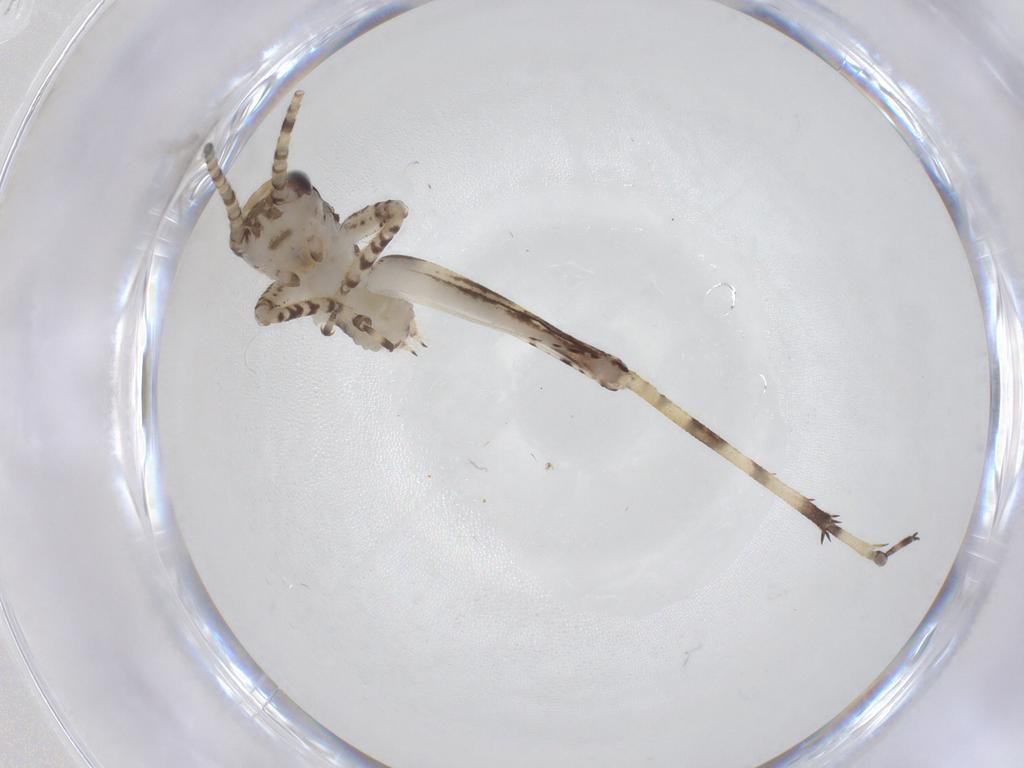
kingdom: Animalia
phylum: Arthropoda
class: Insecta
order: Orthoptera
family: Gryllidae
